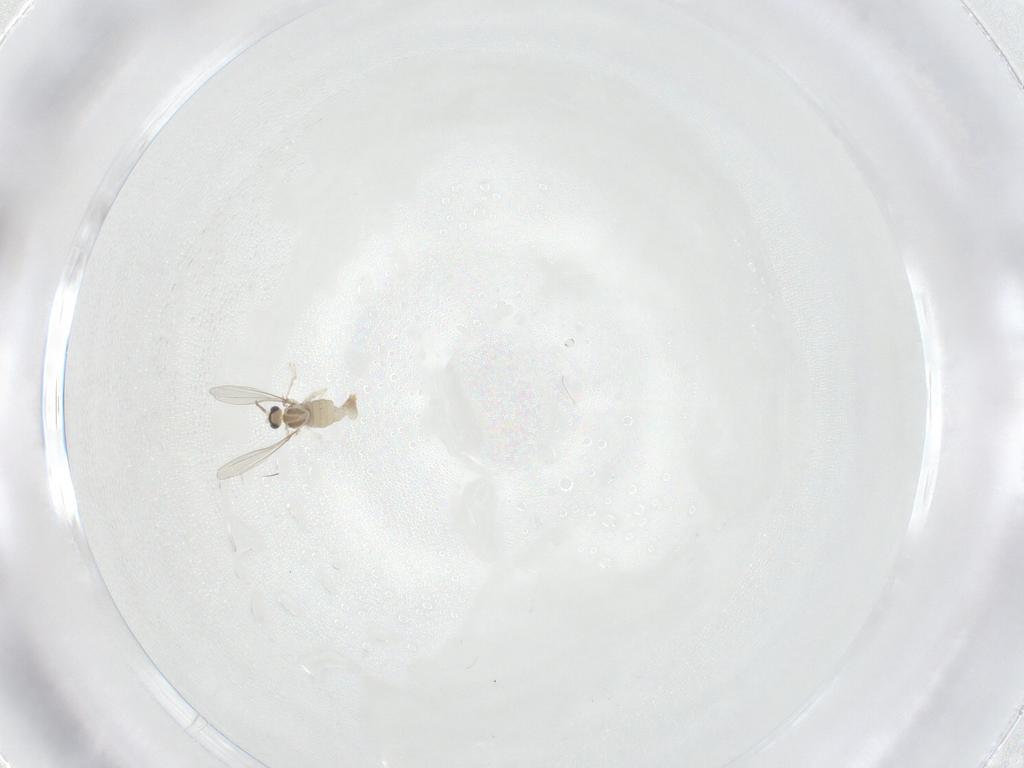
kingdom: Animalia
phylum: Arthropoda
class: Insecta
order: Diptera
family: Cecidomyiidae
